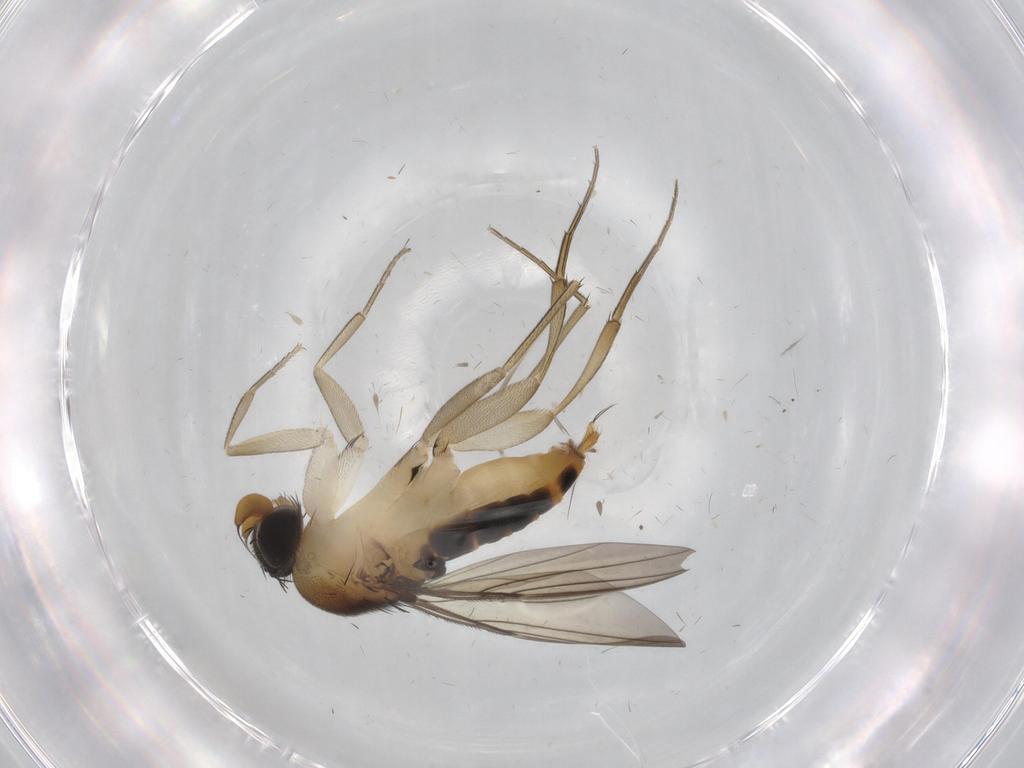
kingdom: Animalia
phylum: Arthropoda
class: Insecta
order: Diptera
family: Phoridae
